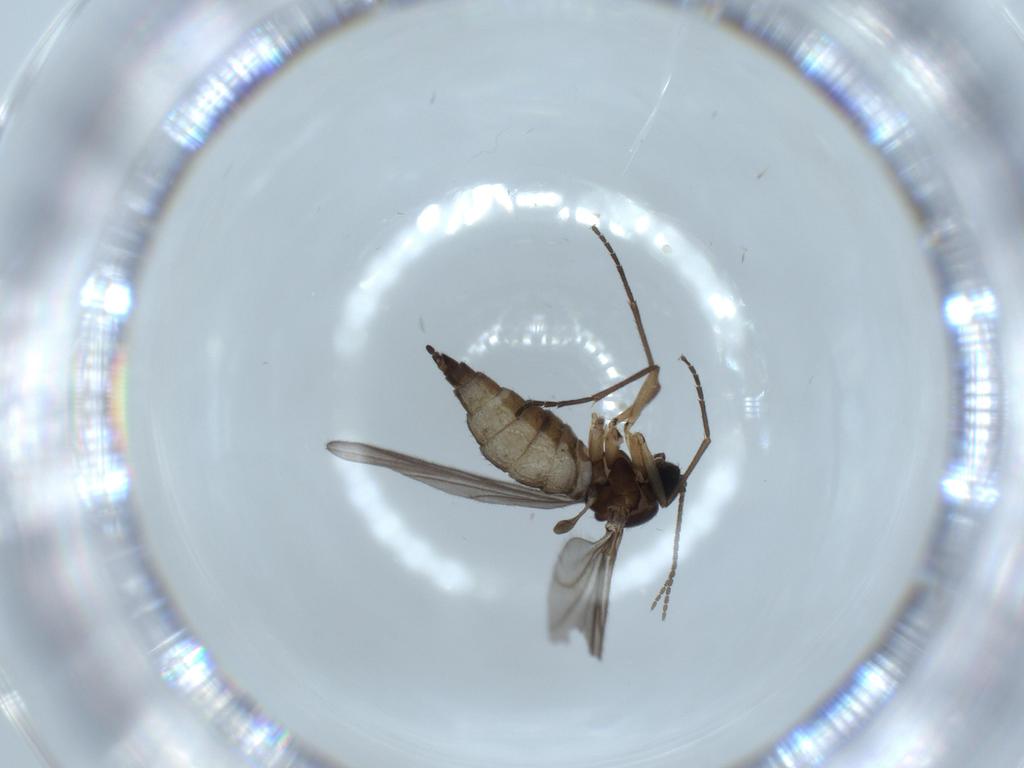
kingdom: Animalia
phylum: Arthropoda
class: Insecta
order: Diptera
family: Sciaridae
